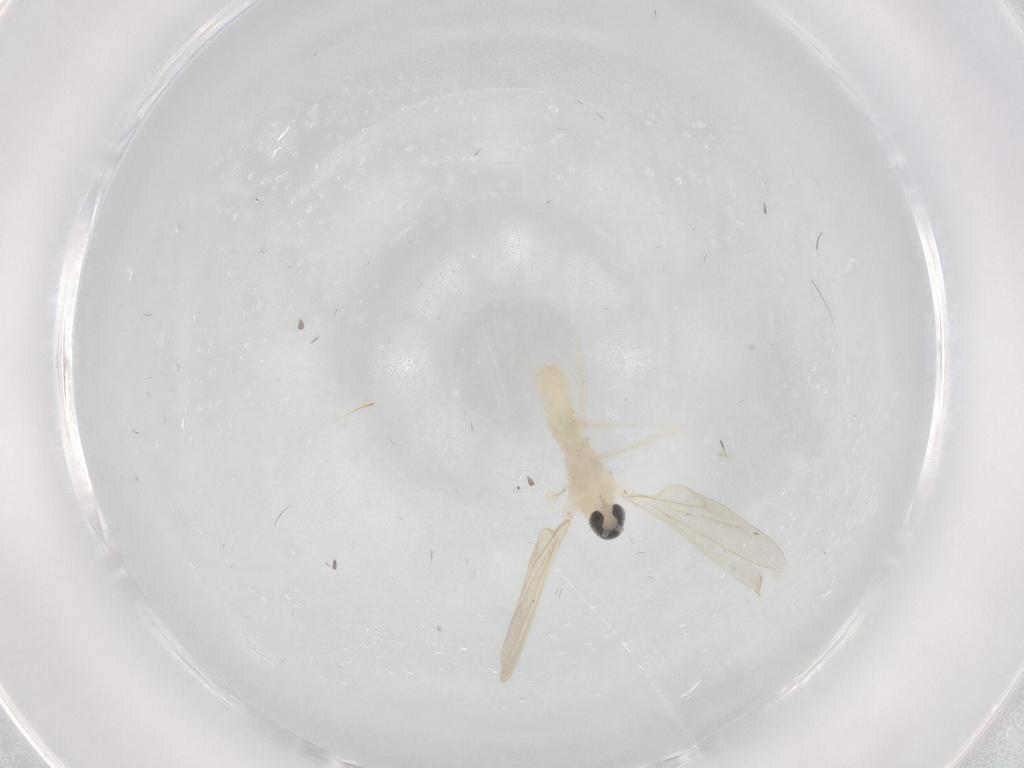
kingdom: Animalia
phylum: Arthropoda
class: Insecta
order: Diptera
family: Cecidomyiidae
